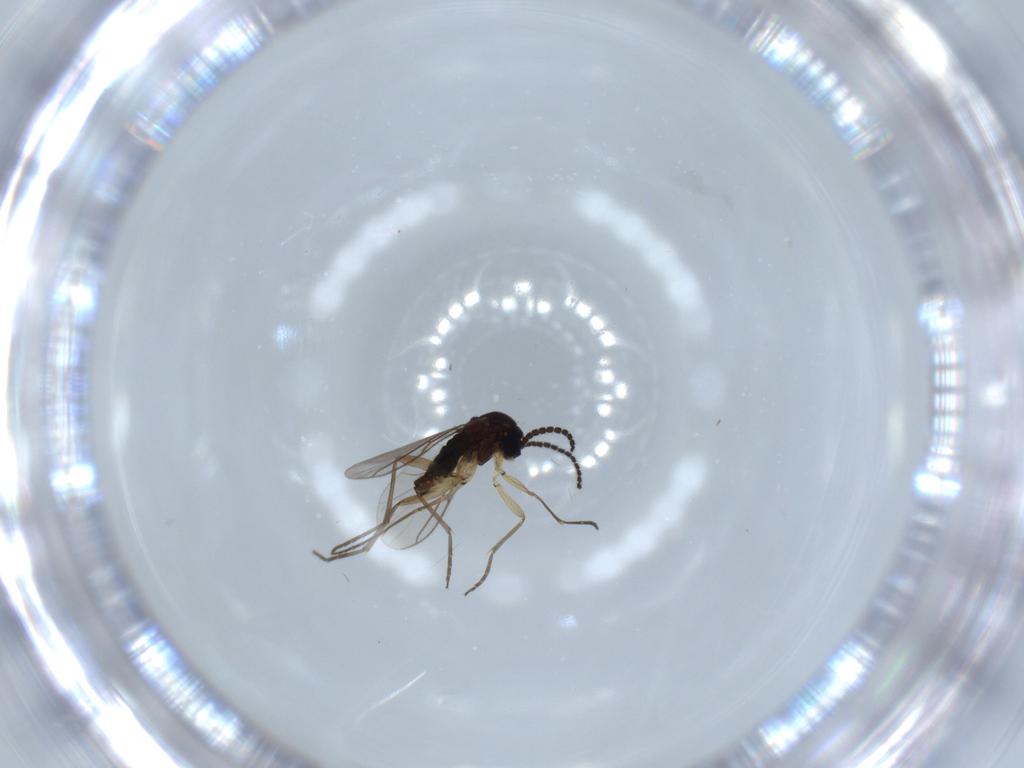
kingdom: Animalia
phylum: Arthropoda
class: Insecta
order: Diptera
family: Sciaridae
